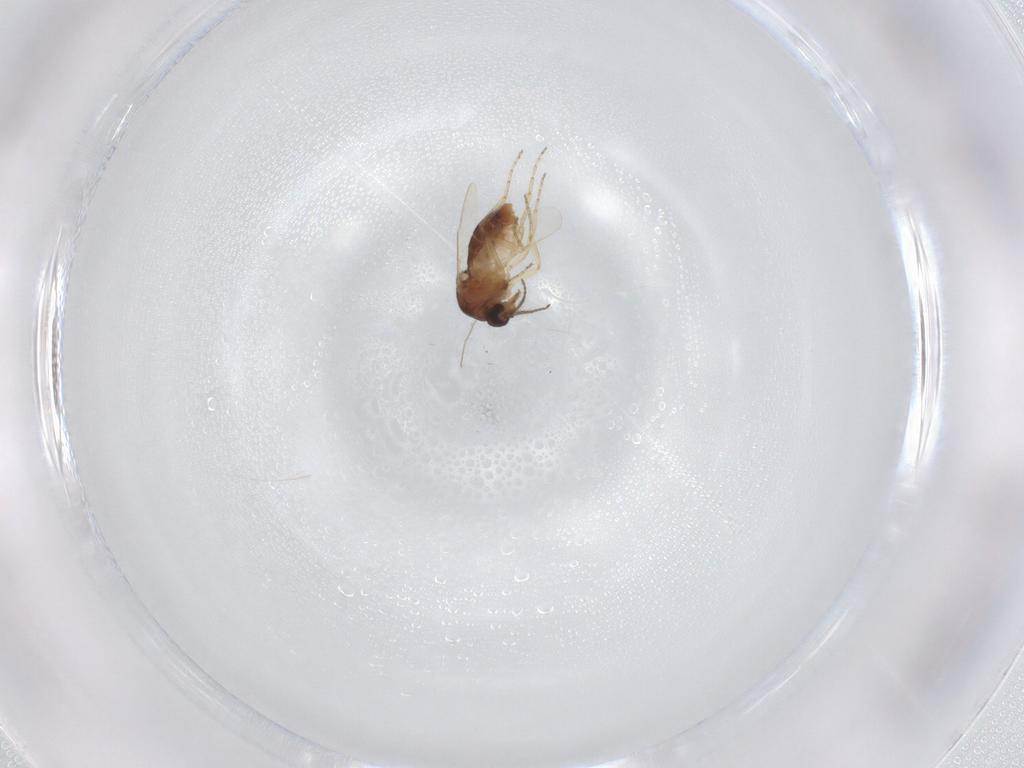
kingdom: Animalia
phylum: Arthropoda
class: Insecta
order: Diptera
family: Ceratopogonidae
